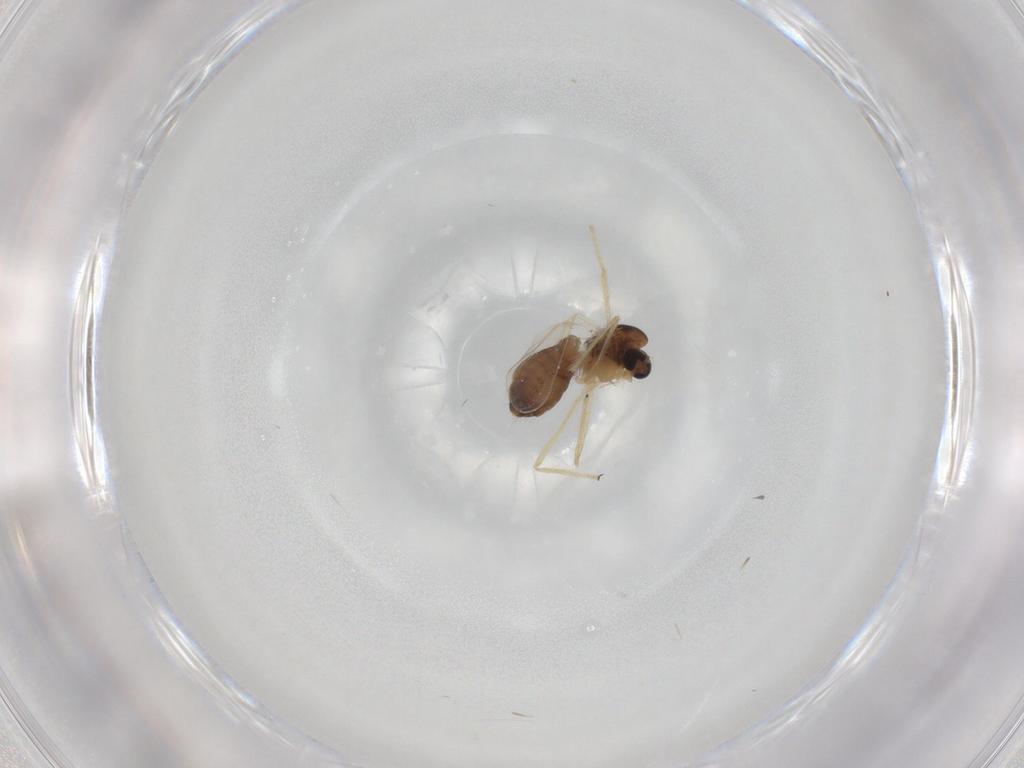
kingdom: Animalia
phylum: Arthropoda
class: Insecta
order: Diptera
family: Chironomidae
